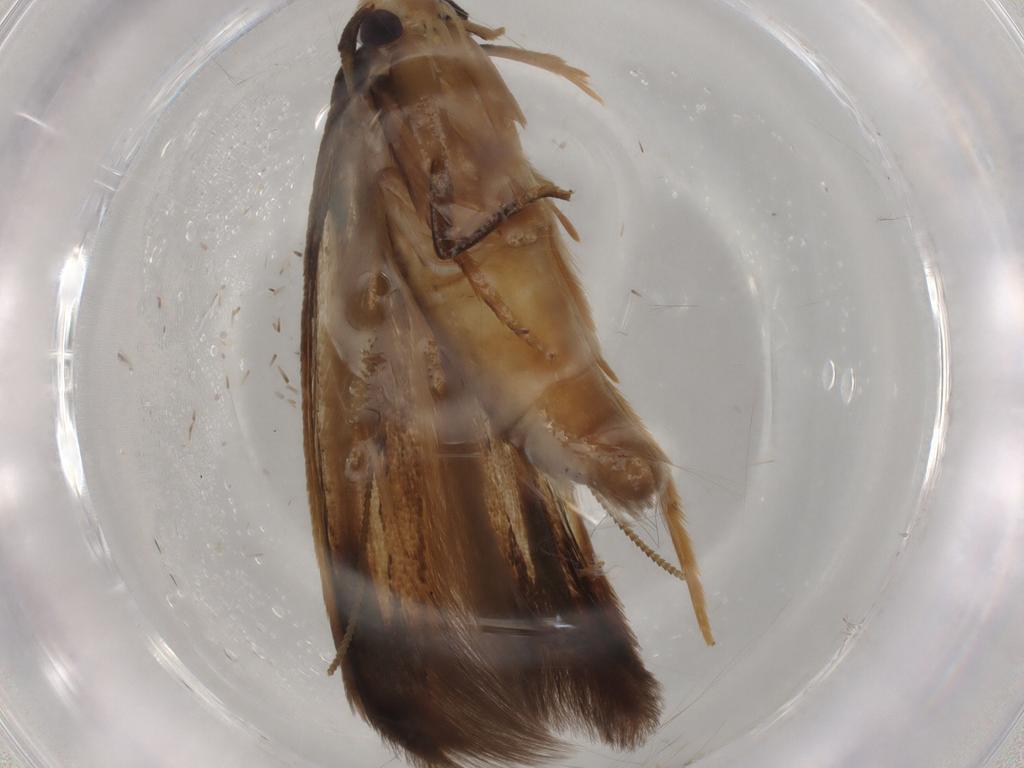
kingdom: Animalia
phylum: Arthropoda
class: Insecta
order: Lepidoptera
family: Tineidae
